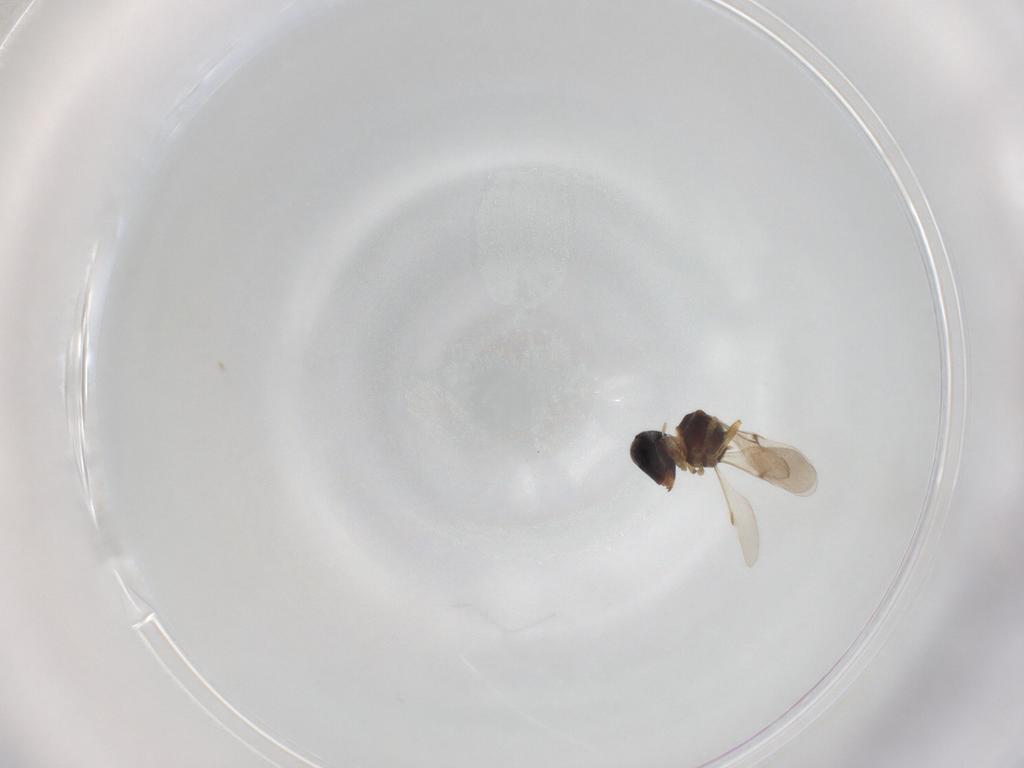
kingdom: Animalia
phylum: Arthropoda
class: Insecta
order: Hymenoptera
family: Scelionidae
